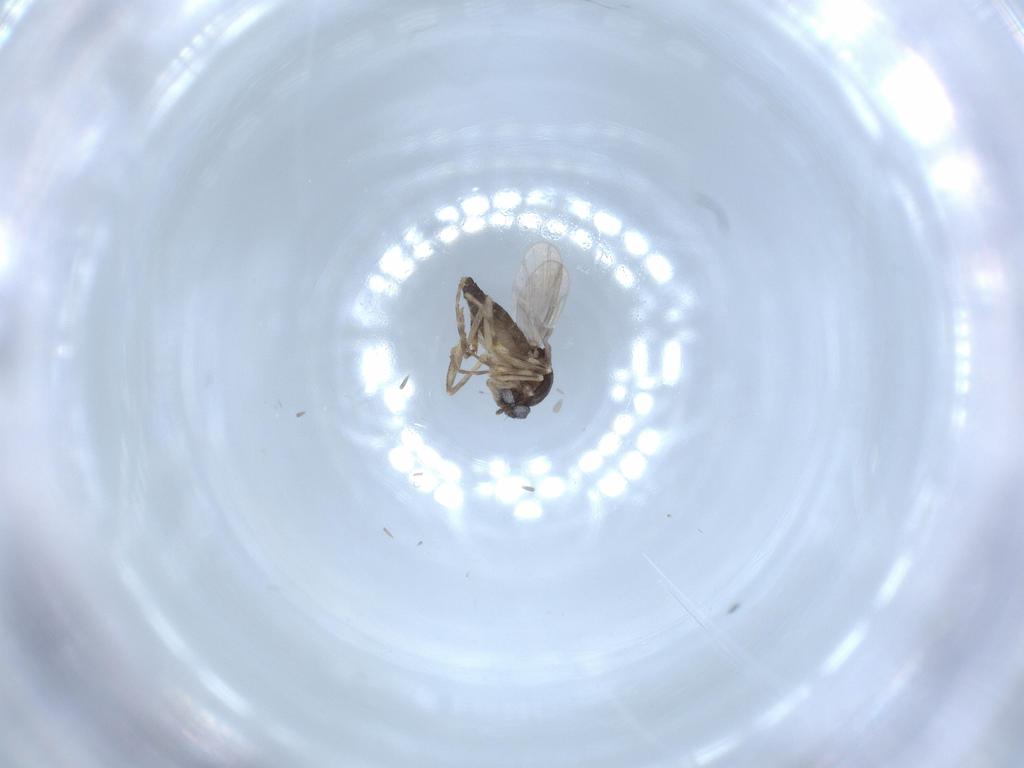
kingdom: Animalia
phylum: Arthropoda
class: Insecta
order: Diptera
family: Ceratopogonidae
